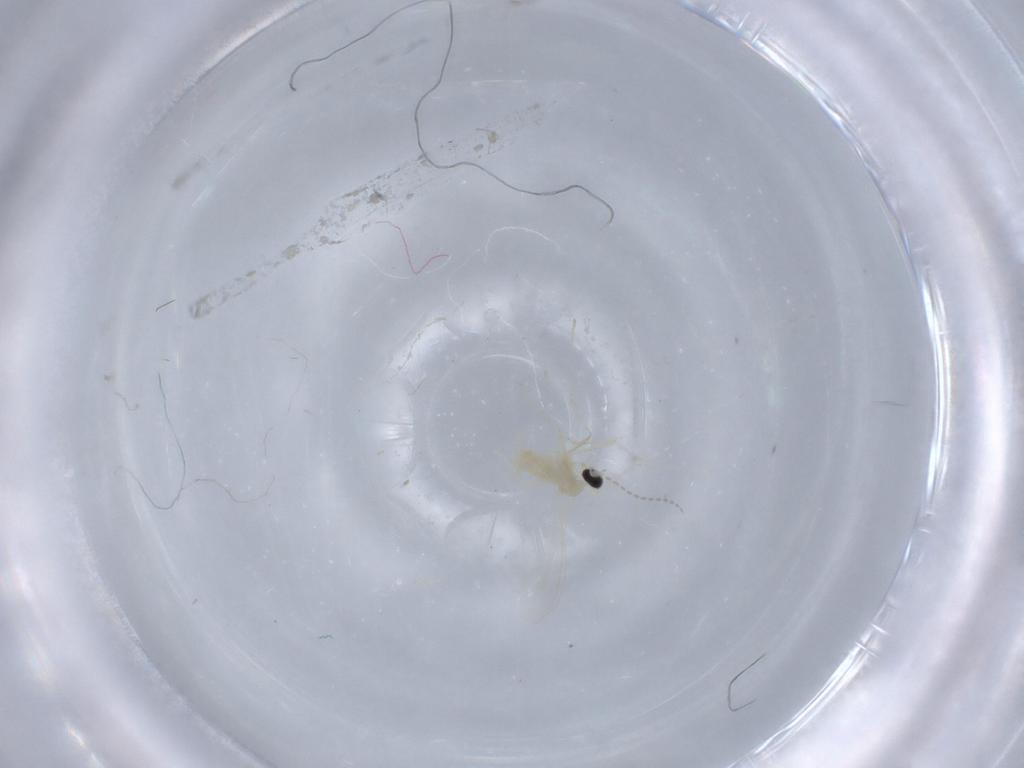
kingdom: Animalia
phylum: Arthropoda
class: Insecta
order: Diptera
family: Cecidomyiidae
